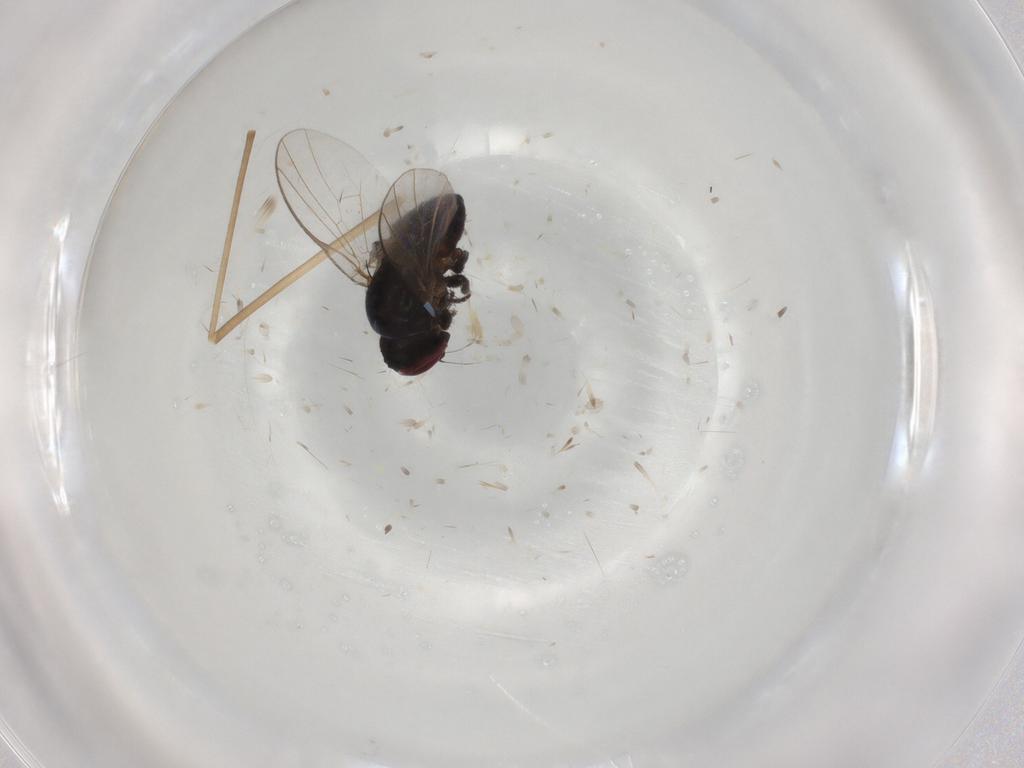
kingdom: Animalia
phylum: Arthropoda
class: Insecta
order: Diptera
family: Agromyzidae
